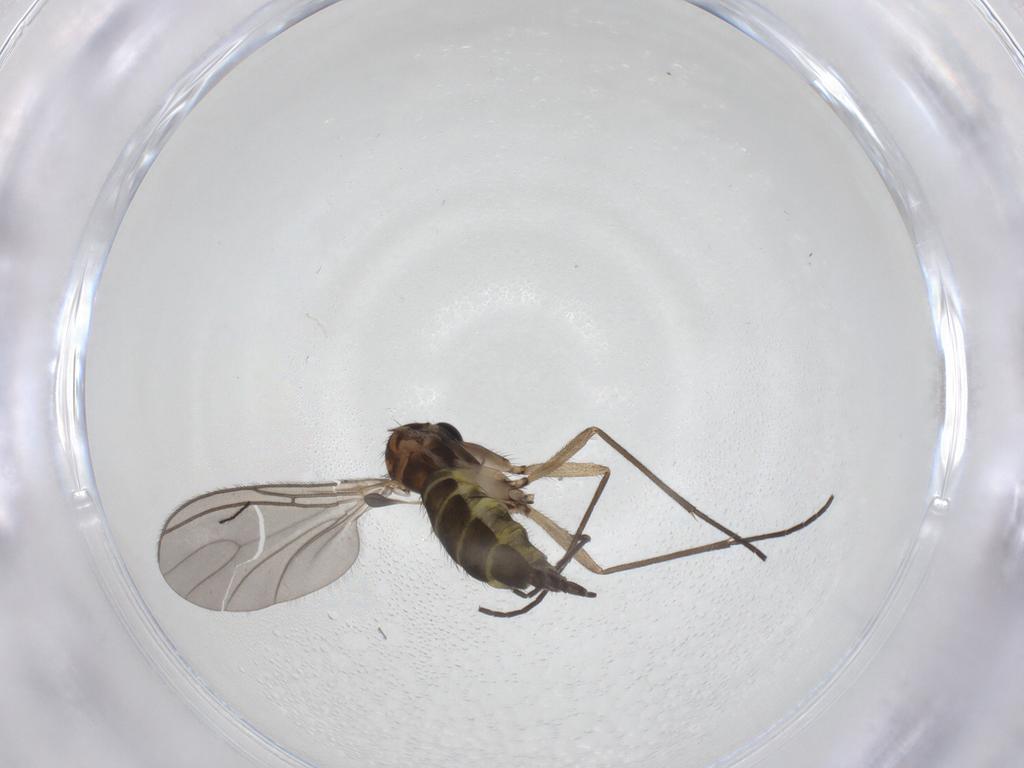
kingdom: Animalia
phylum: Arthropoda
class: Insecta
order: Diptera
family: Sciaridae
